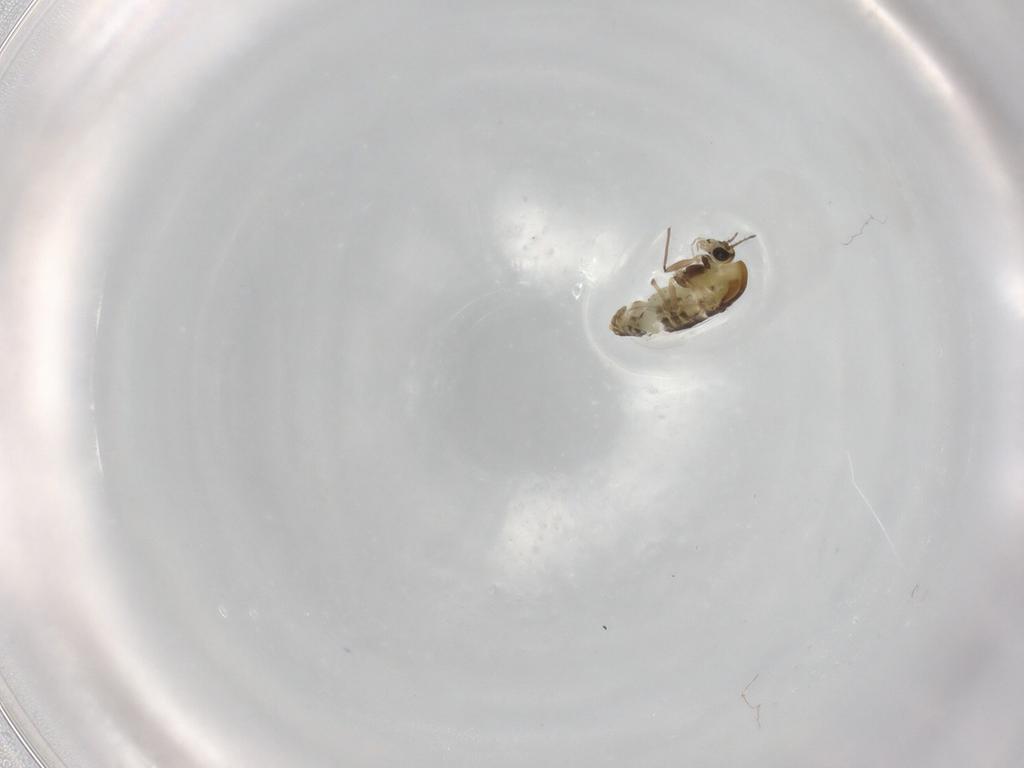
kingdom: Animalia
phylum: Arthropoda
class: Insecta
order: Diptera
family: Chironomidae
